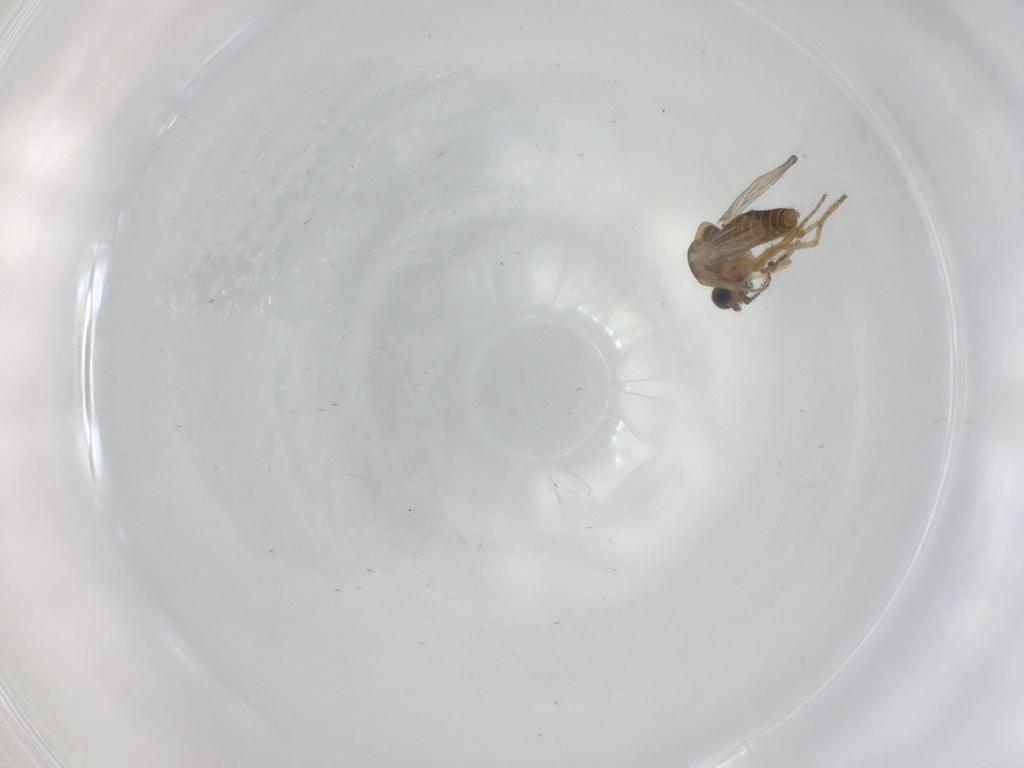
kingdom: Animalia
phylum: Arthropoda
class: Insecta
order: Diptera
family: Ceratopogonidae
